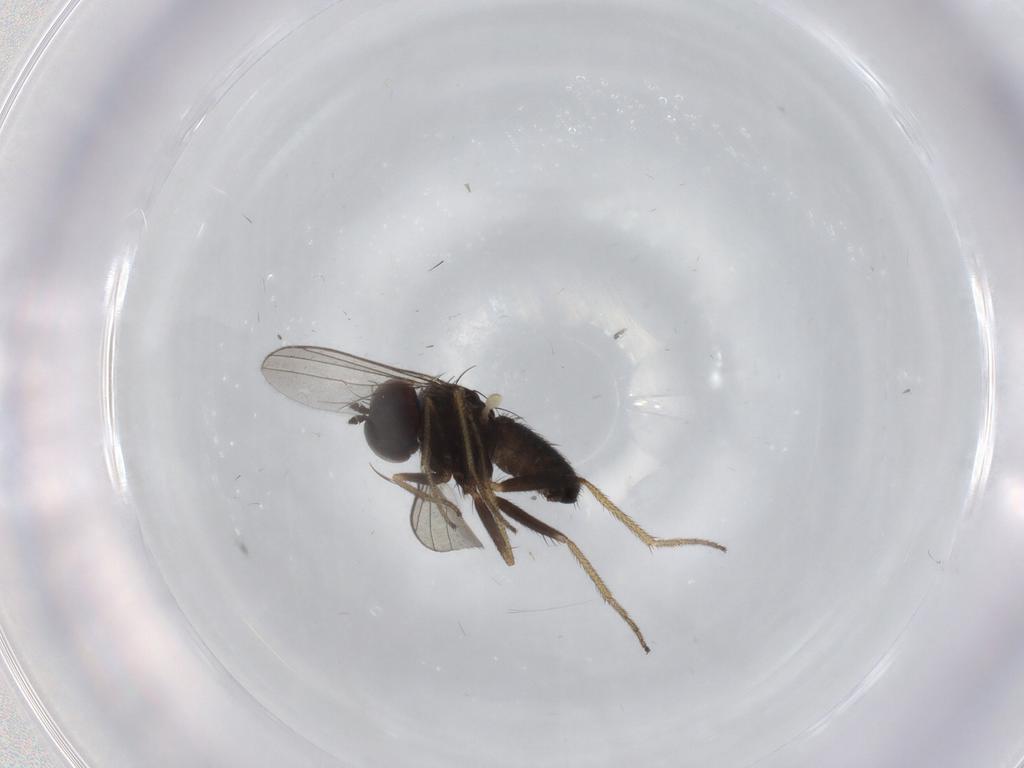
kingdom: Animalia
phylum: Arthropoda
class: Insecta
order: Diptera
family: Dolichopodidae
